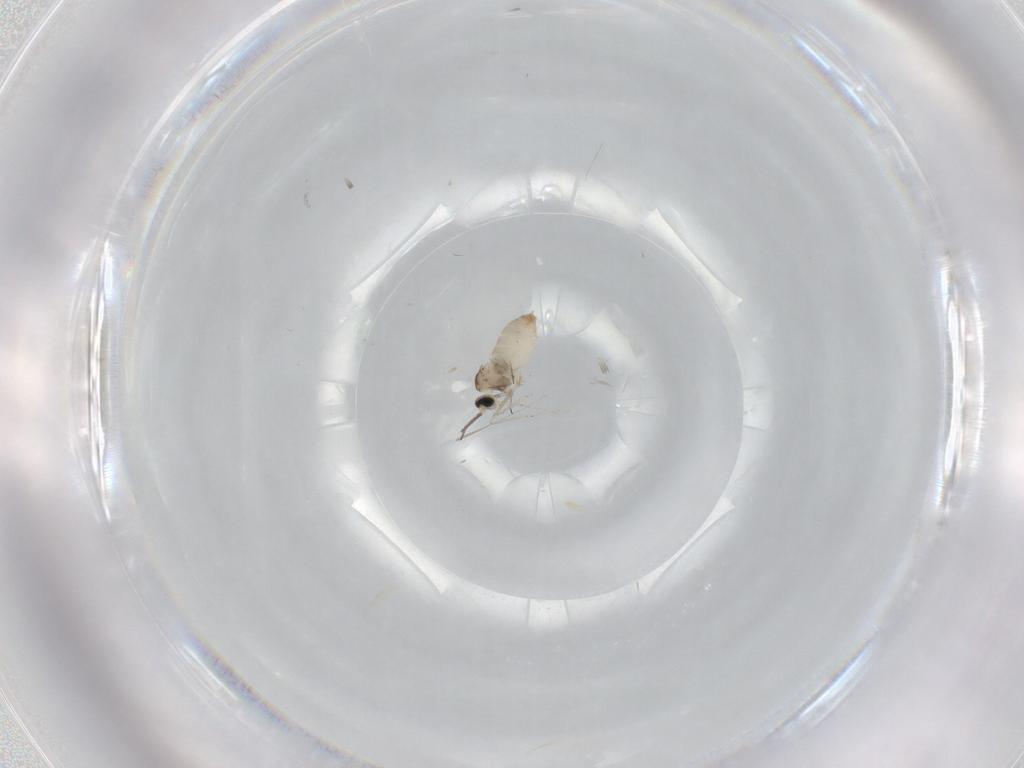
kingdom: Animalia
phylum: Arthropoda
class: Insecta
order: Diptera
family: Cecidomyiidae
